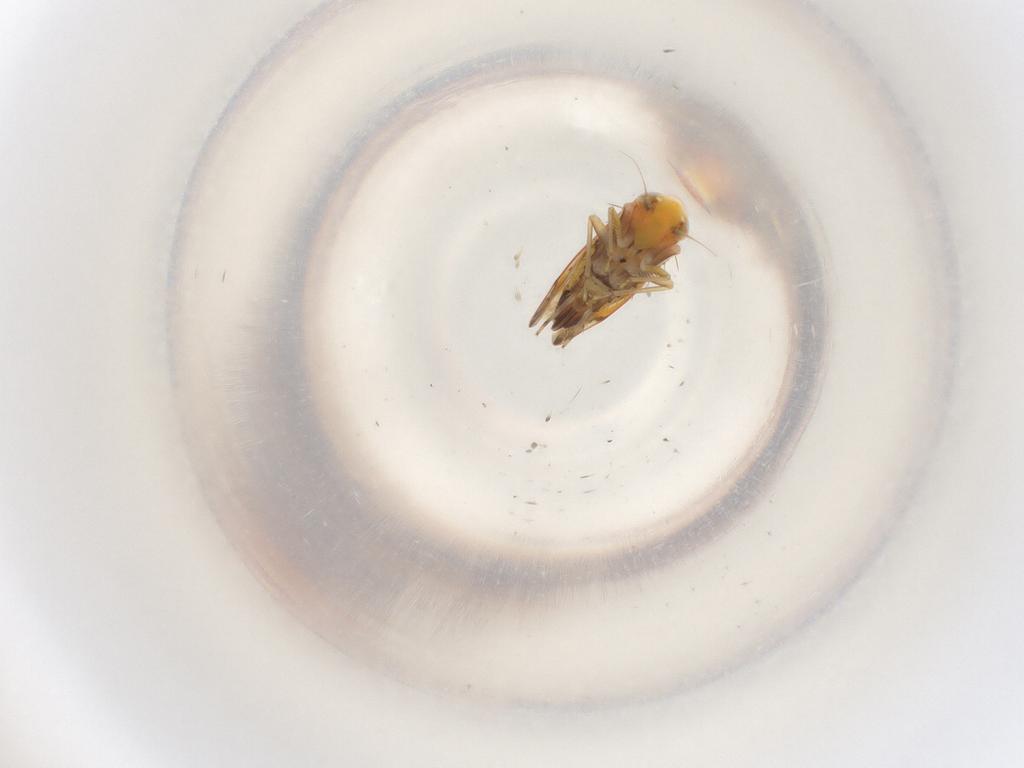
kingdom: Animalia
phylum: Arthropoda
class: Insecta
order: Hemiptera
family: Cicadellidae
